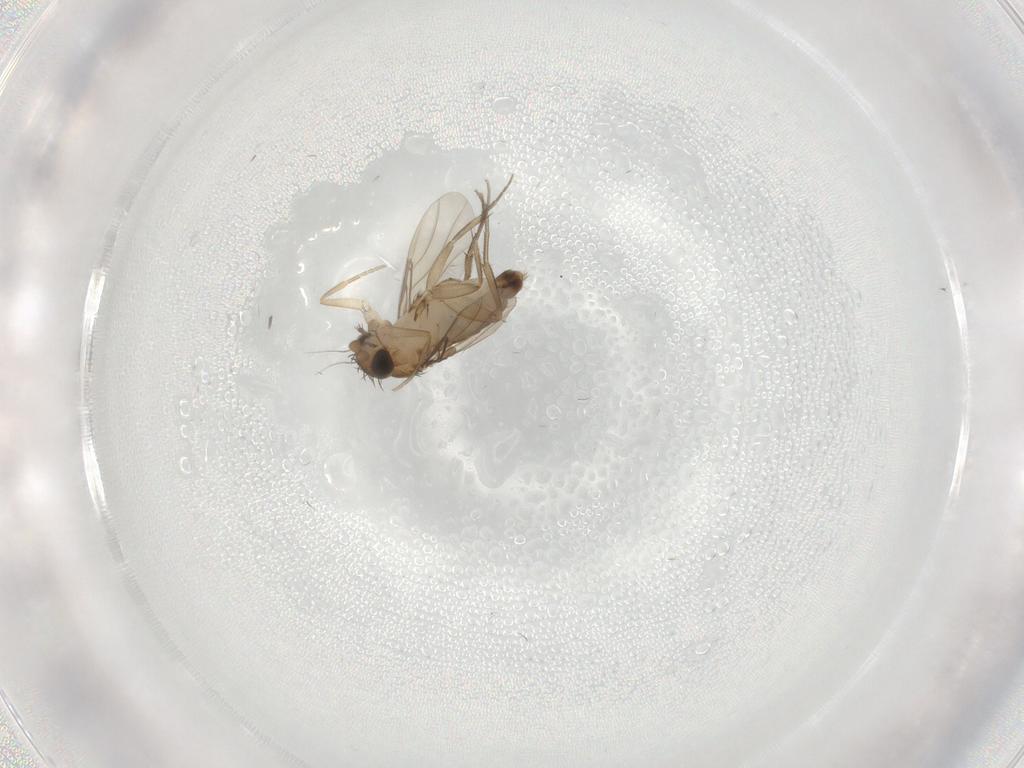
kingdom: Animalia
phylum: Arthropoda
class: Insecta
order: Diptera
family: Phoridae
